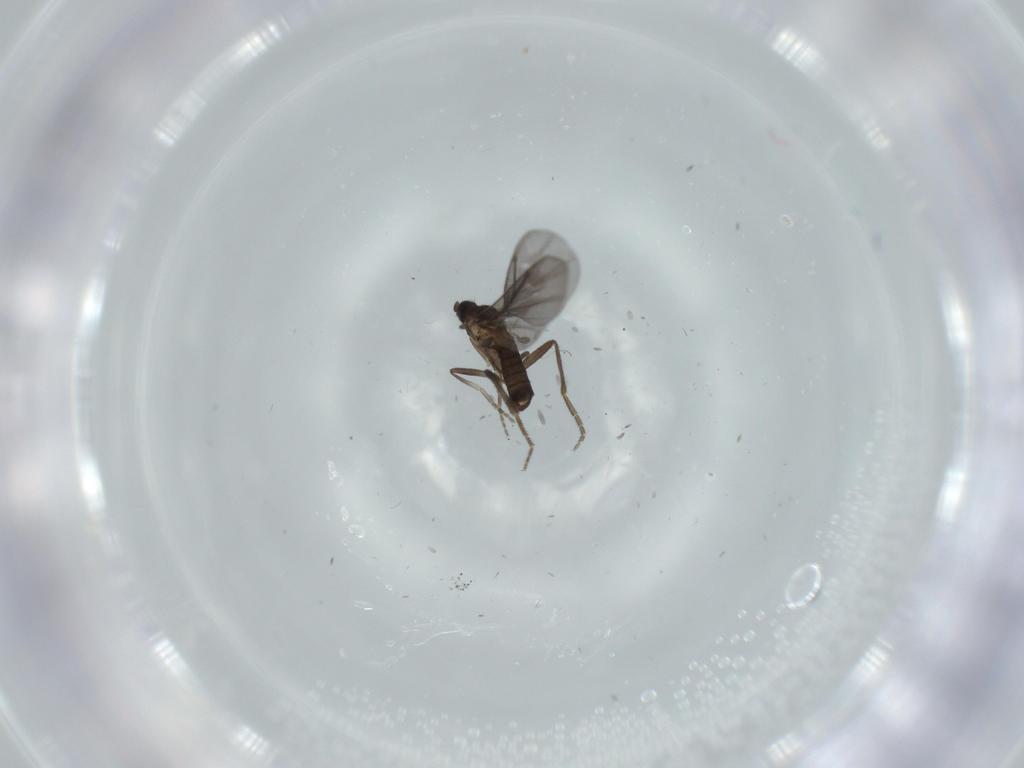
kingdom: Animalia
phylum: Arthropoda
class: Insecta
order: Diptera
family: Phoridae
